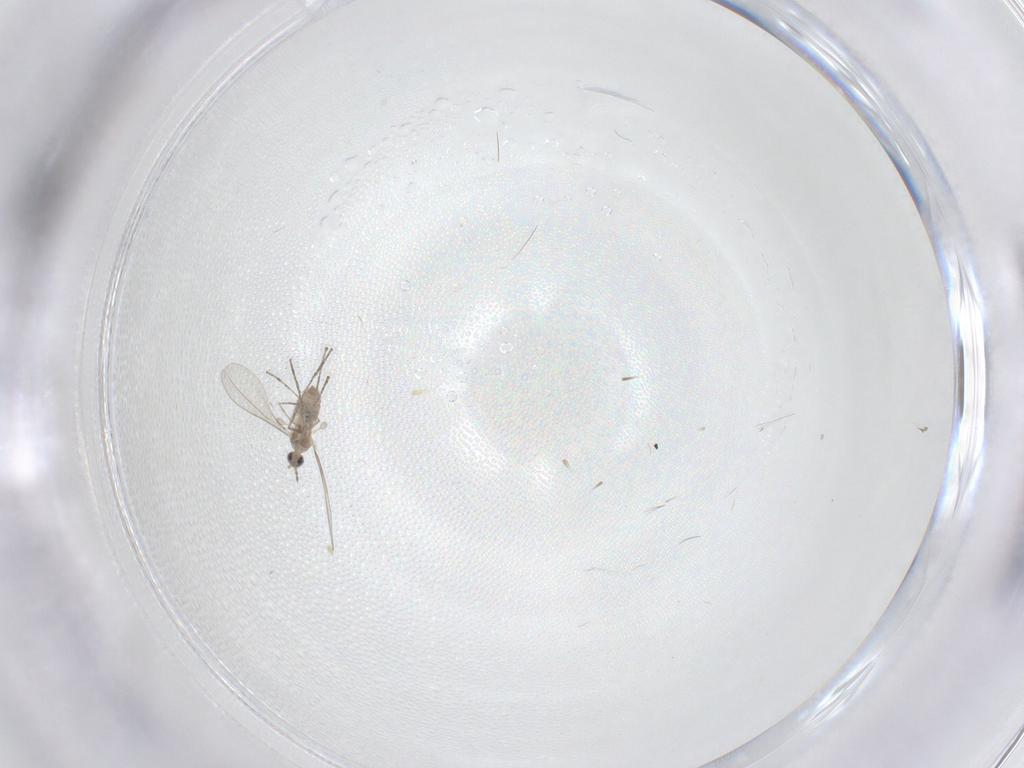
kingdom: Animalia
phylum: Arthropoda
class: Insecta
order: Diptera
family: Cecidomyiidae
